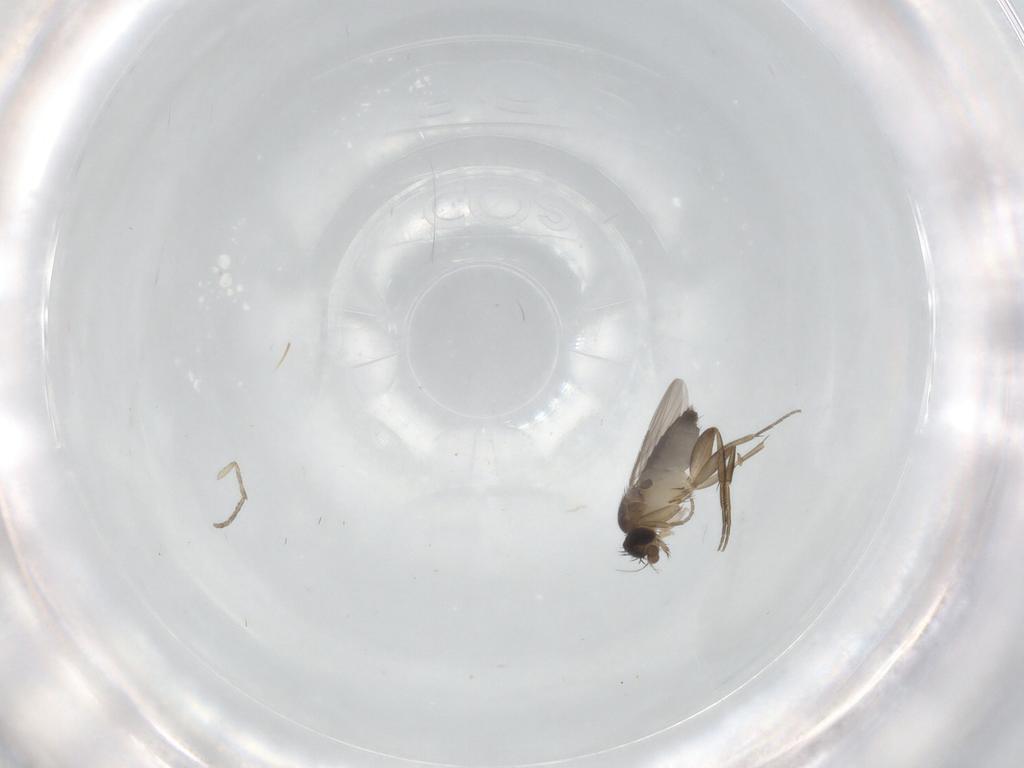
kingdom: Animalia
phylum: Arthropoda
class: Insecta
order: Diptera
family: Phoridae
